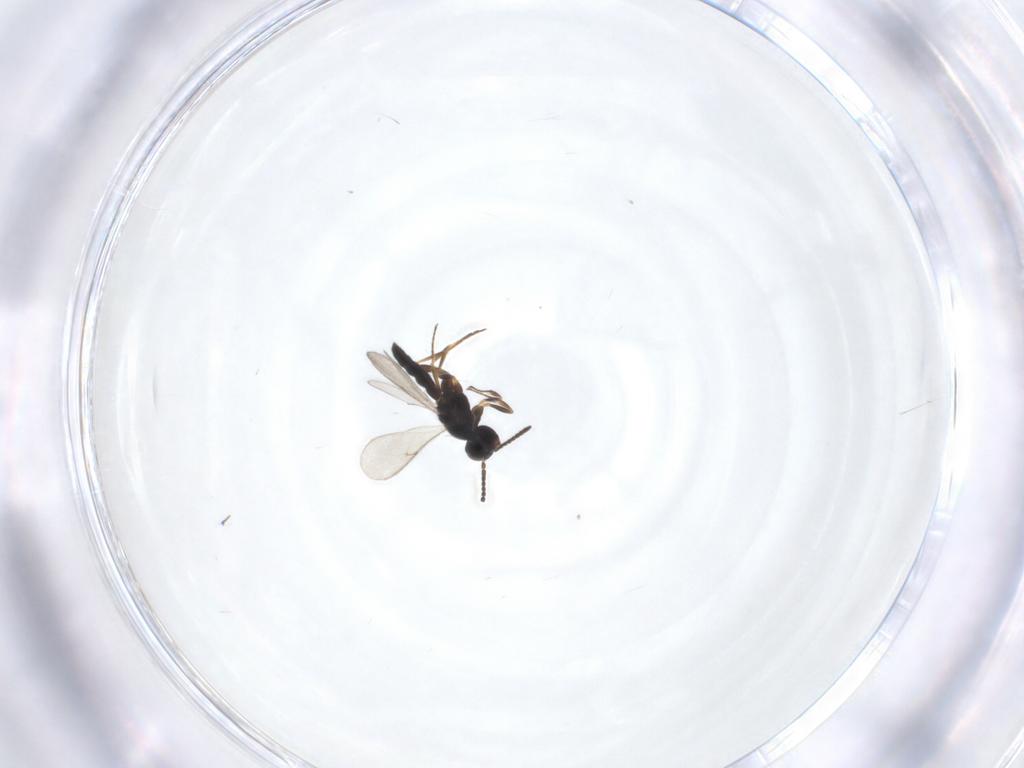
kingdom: Animalia
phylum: Arthropoda
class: Insecta
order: Hymenoptera
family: Scelionidae
